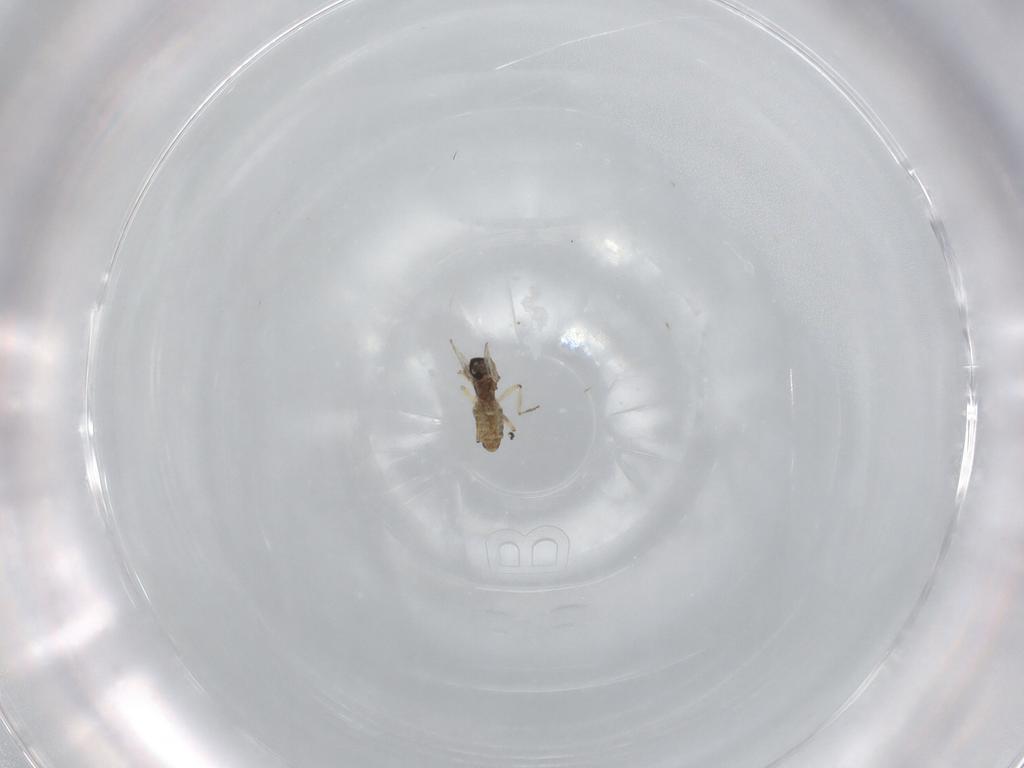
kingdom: Animalia
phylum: Arthropoda
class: Insecta
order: Diptera
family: Ceratopogonidae
